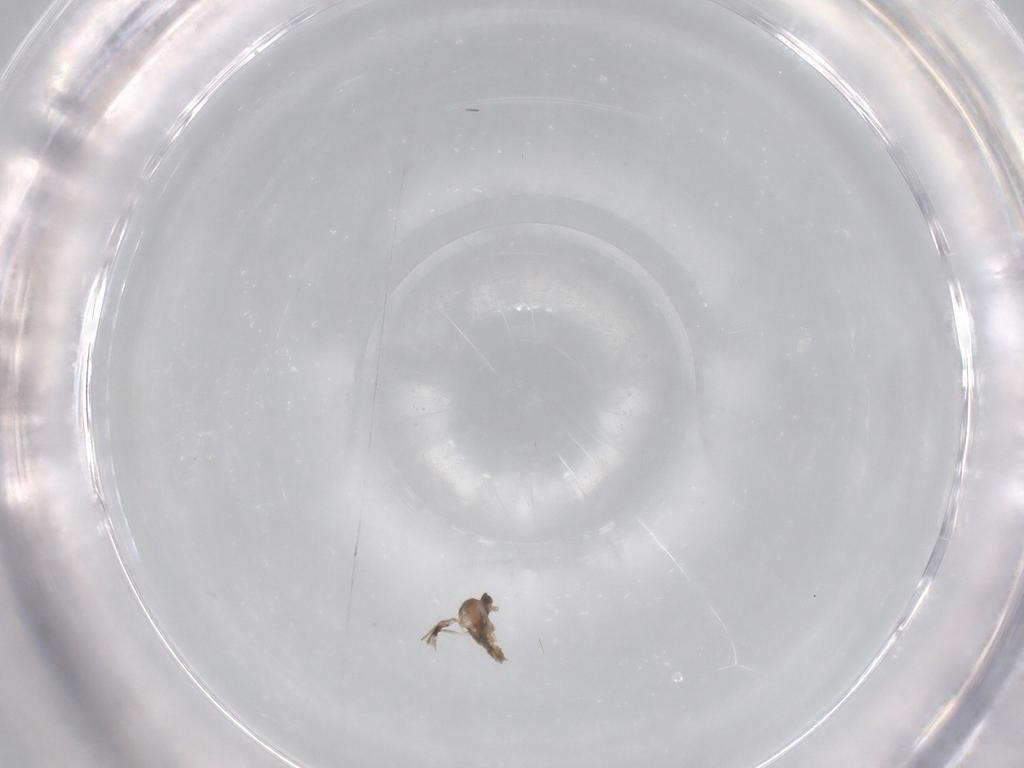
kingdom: Animalia
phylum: Arthropoda
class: Insecta
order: Diptera
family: Cecidomyiidae
